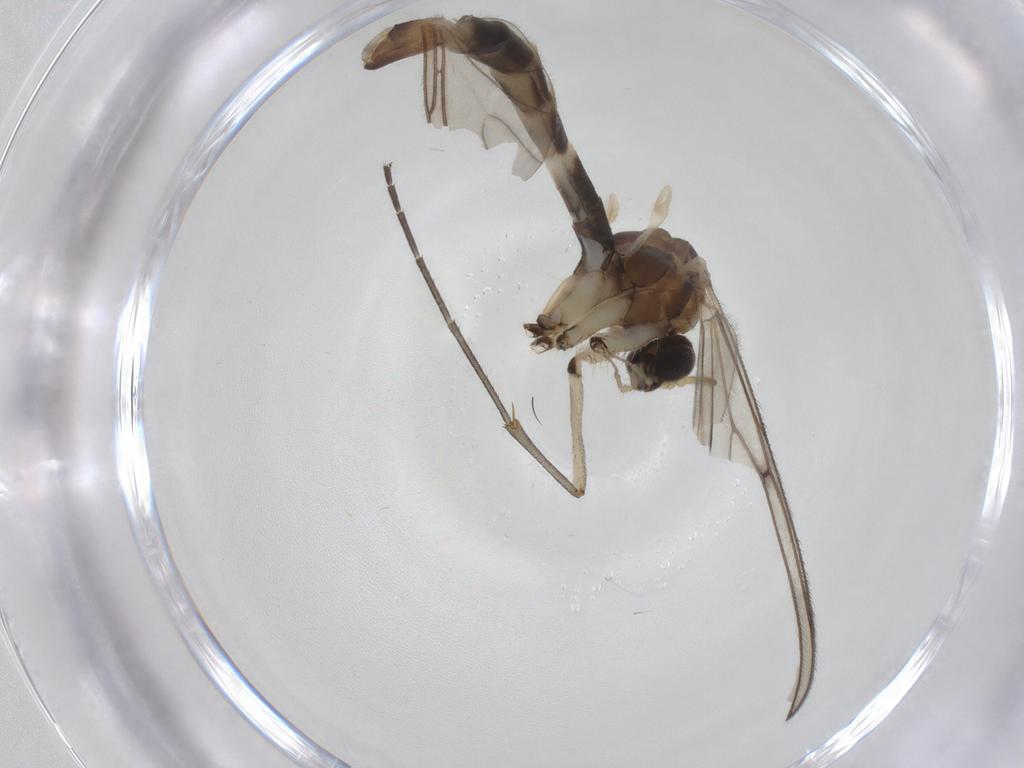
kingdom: Animalia
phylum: Arthropoda
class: Insecta
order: Diptera
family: Mycetophilidae
